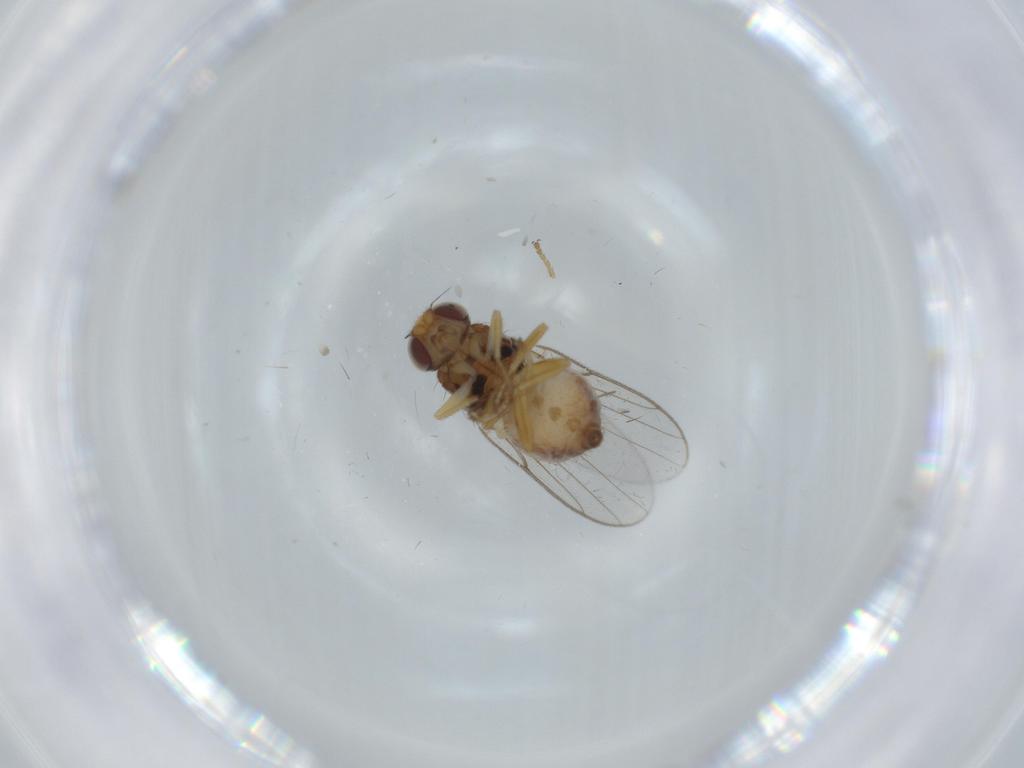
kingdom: Animalia
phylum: Arthropoda
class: Insecta
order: Diptera
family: Chloropidae
